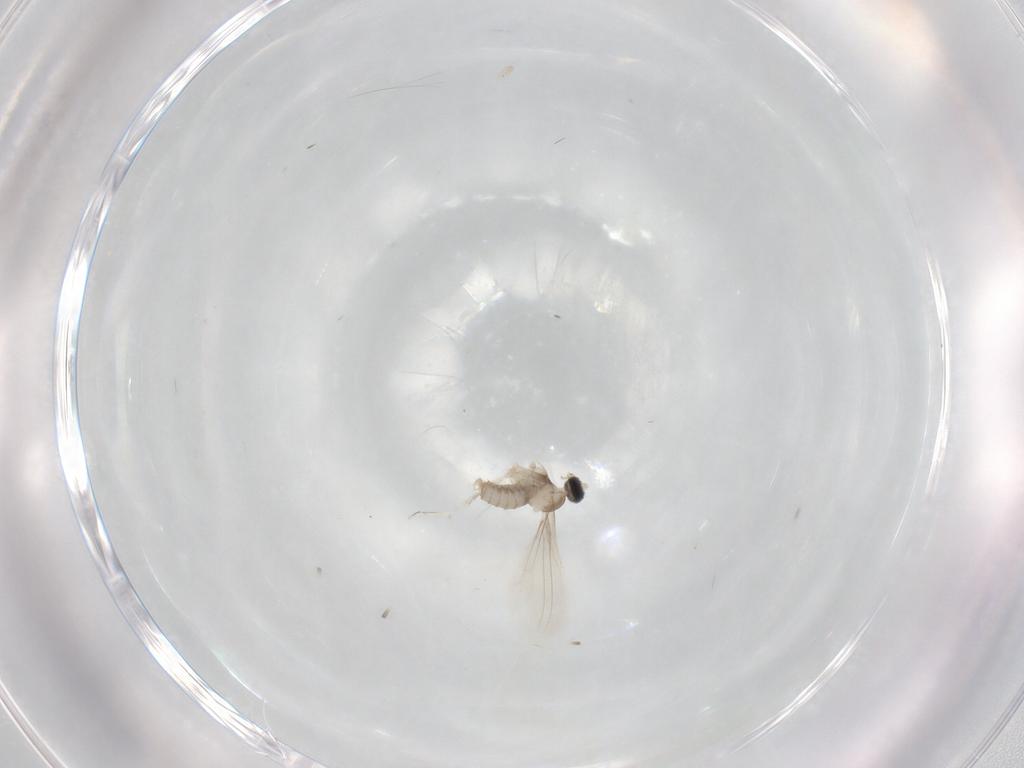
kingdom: Animalia
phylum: Arthropoda
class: Insecta
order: Diptera
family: Cecidomyiidae
